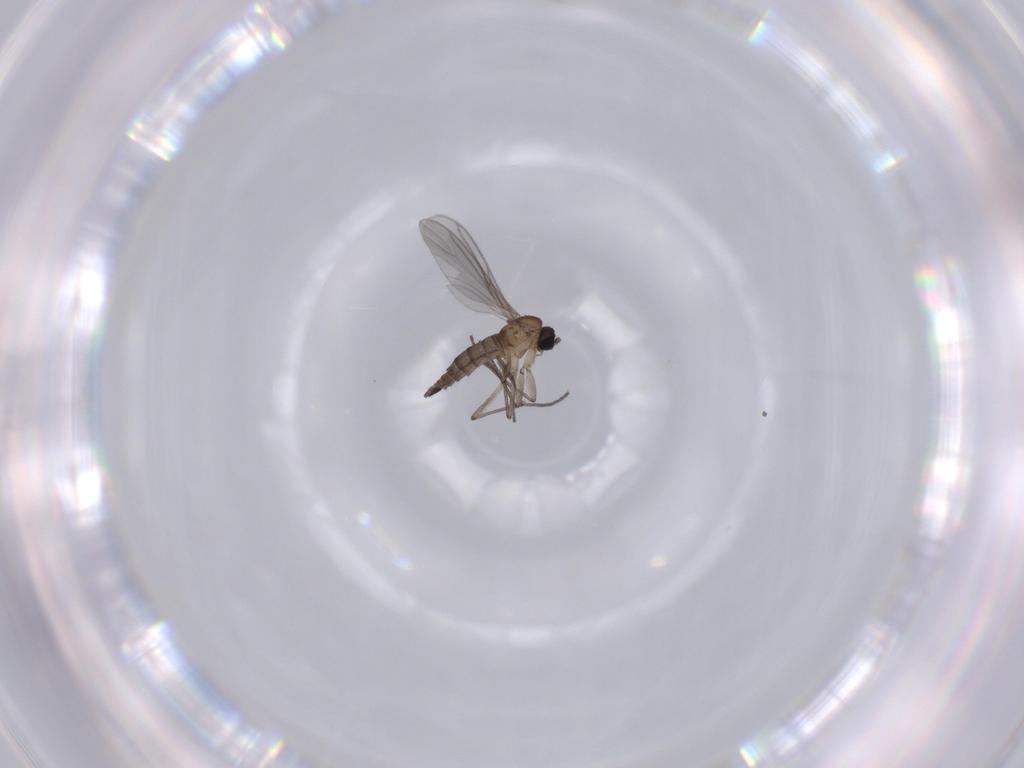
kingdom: Animalia
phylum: Arthropoda
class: Insecta
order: Diptera
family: Sciaridae
